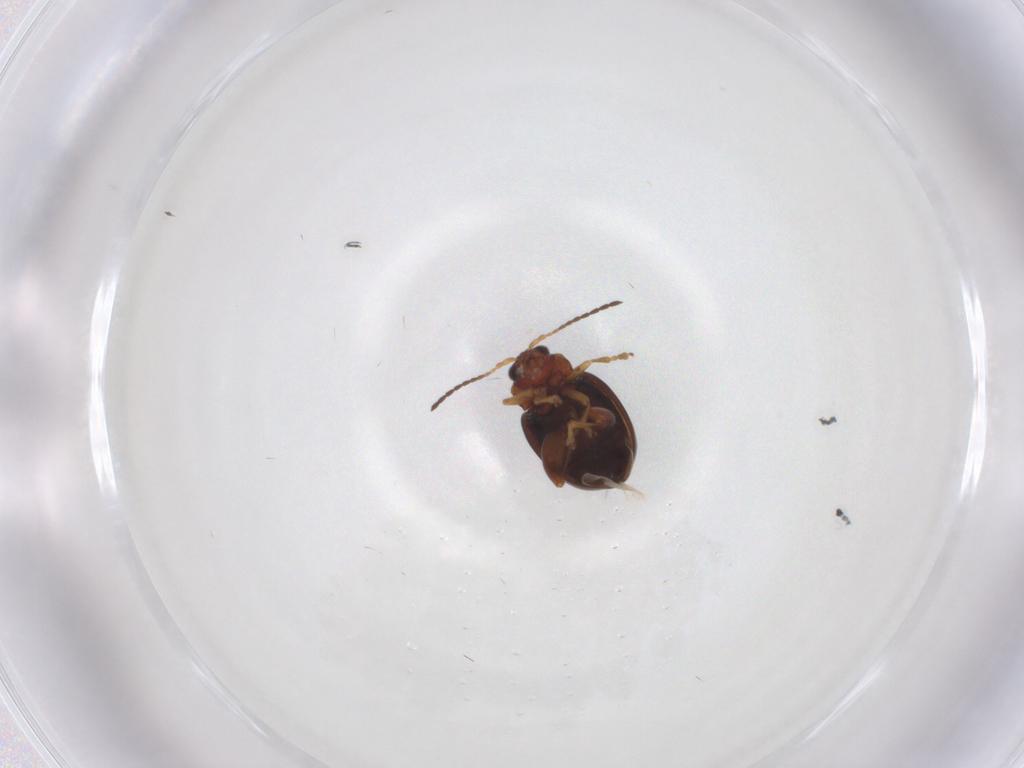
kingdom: Animalia
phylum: Arthropoda
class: Insecta
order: Coleoptera
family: Chrysomelidae
